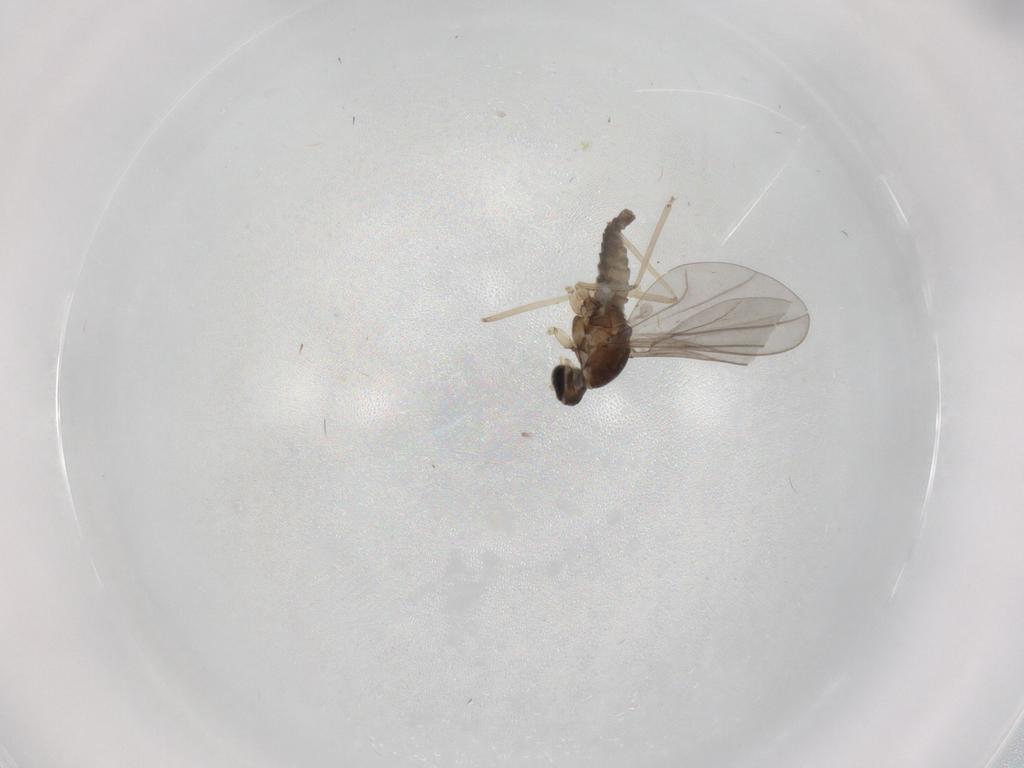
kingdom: Animalia
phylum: Arthropoda
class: Insecta
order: Diptera
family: Cecidomyiidae
